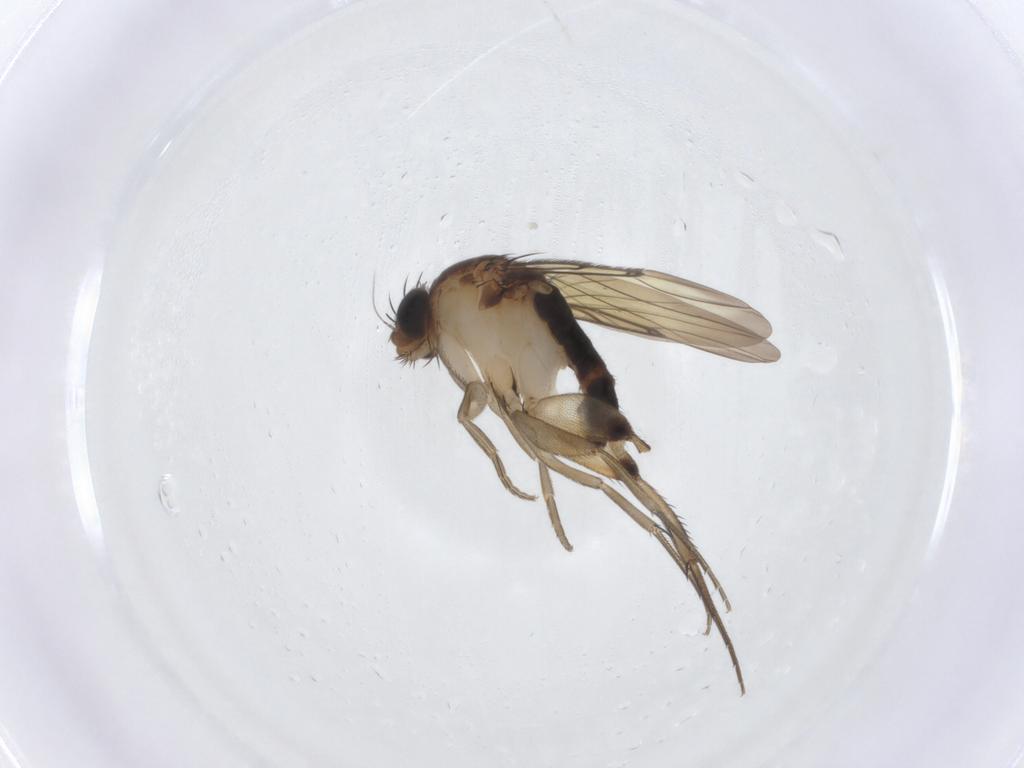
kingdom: Animalia
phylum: Arthropoda
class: Insecta
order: Diptera
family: Phoridae
